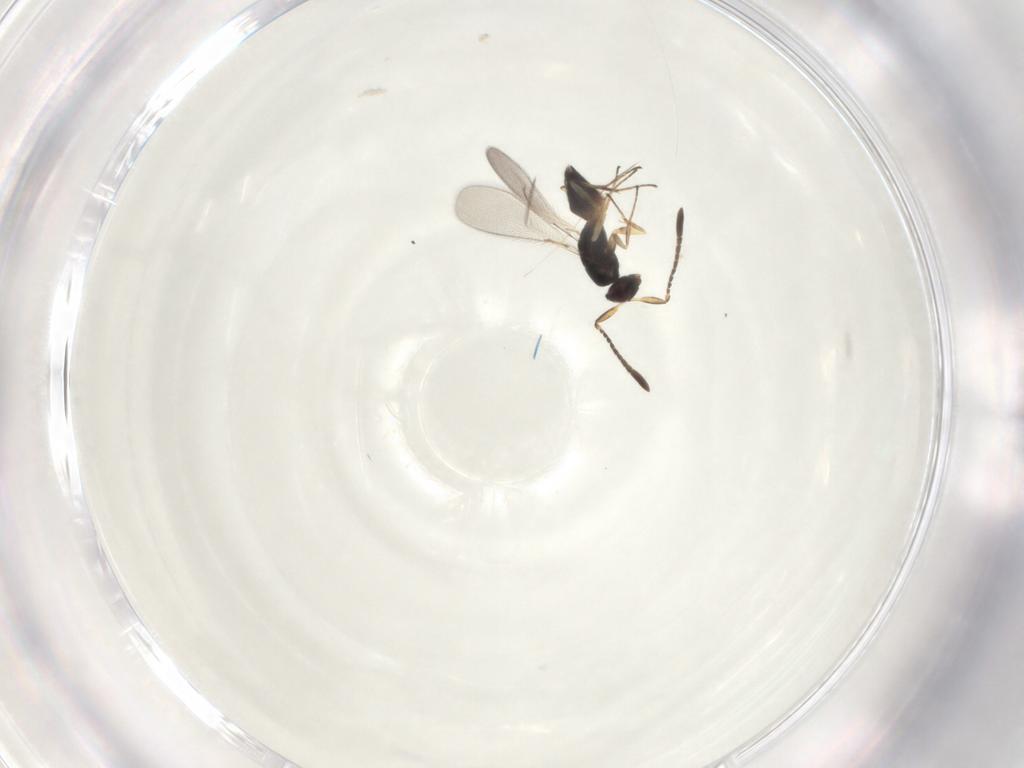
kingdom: Animalia
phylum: Arthropoda
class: Insecta
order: Hymenoptera
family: Mymaridae
